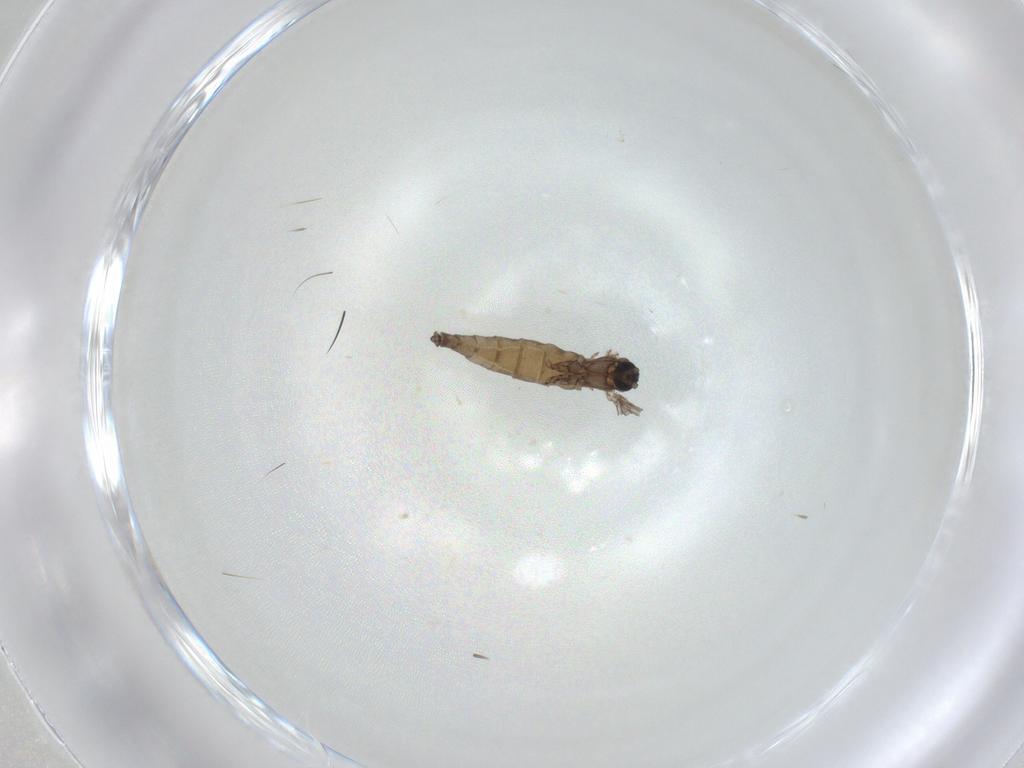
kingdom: Animalia
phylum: Arthropoda
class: Insecta
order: Diptera
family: Sciaridae
